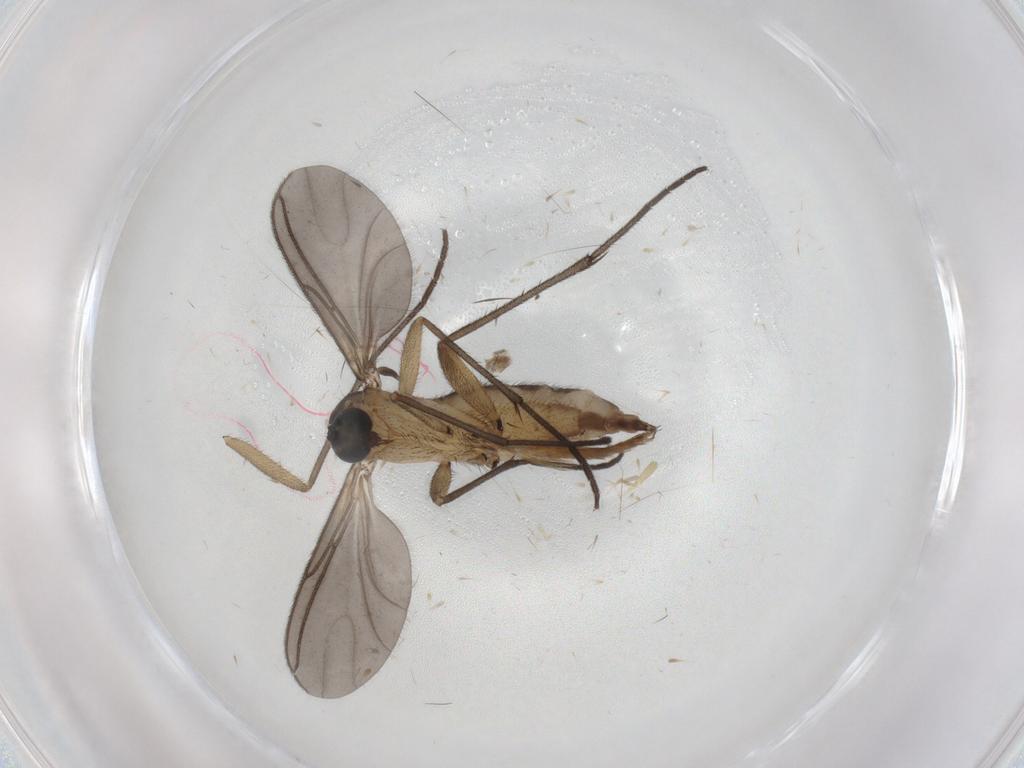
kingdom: Animalia
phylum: Arthropoda
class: Insecta
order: Diptera
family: Sciaridae
